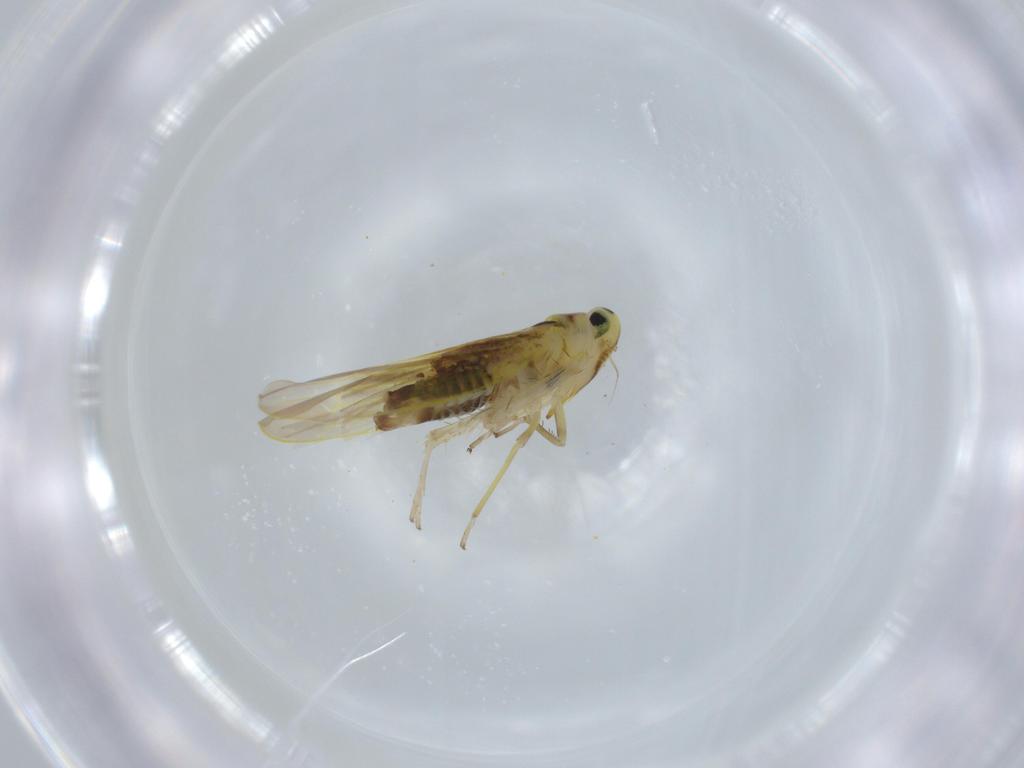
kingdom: Animalia
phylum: Arthropoda
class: Insecta
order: Hemiptera
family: Cicadellidae
